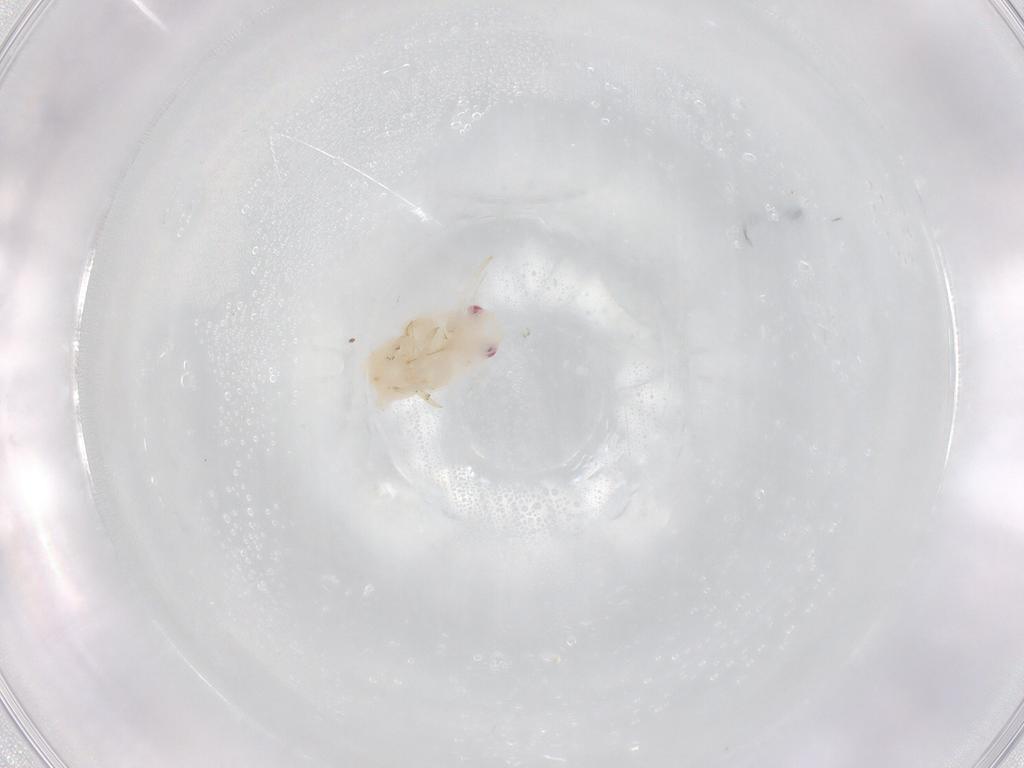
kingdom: Animalia
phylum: Arthropoda
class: Insecta
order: Hemiptera
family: Flatidae
